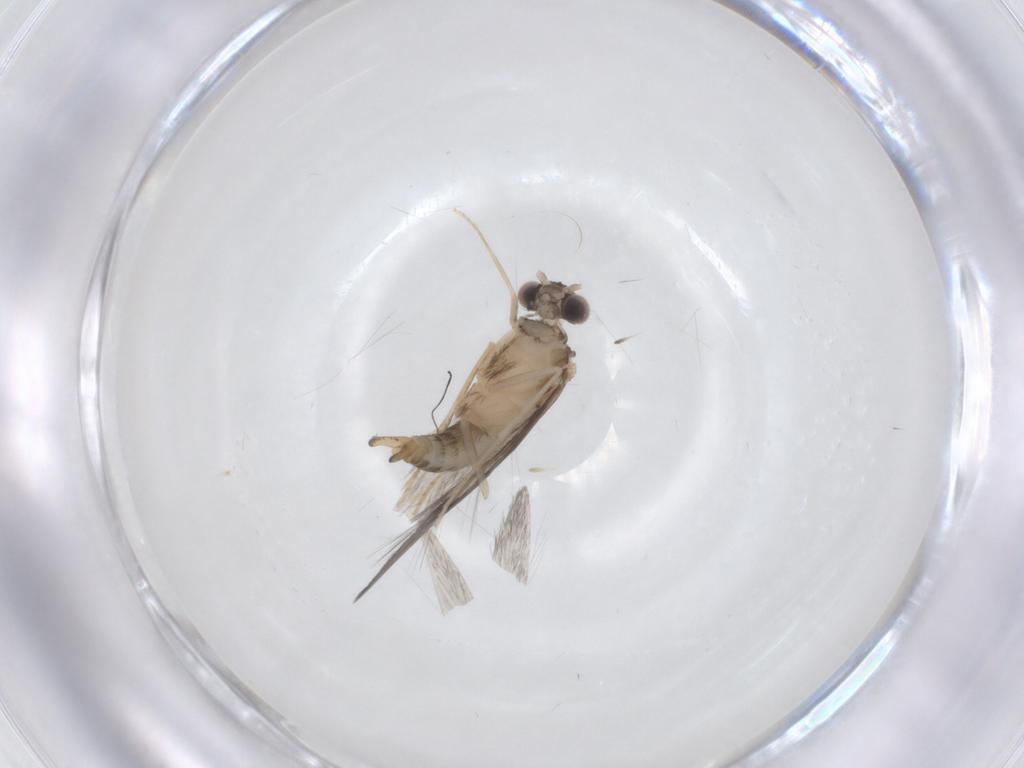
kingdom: Animalia
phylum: Arthropoda
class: Insecta
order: Trichoptera
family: Hydroptilidae
